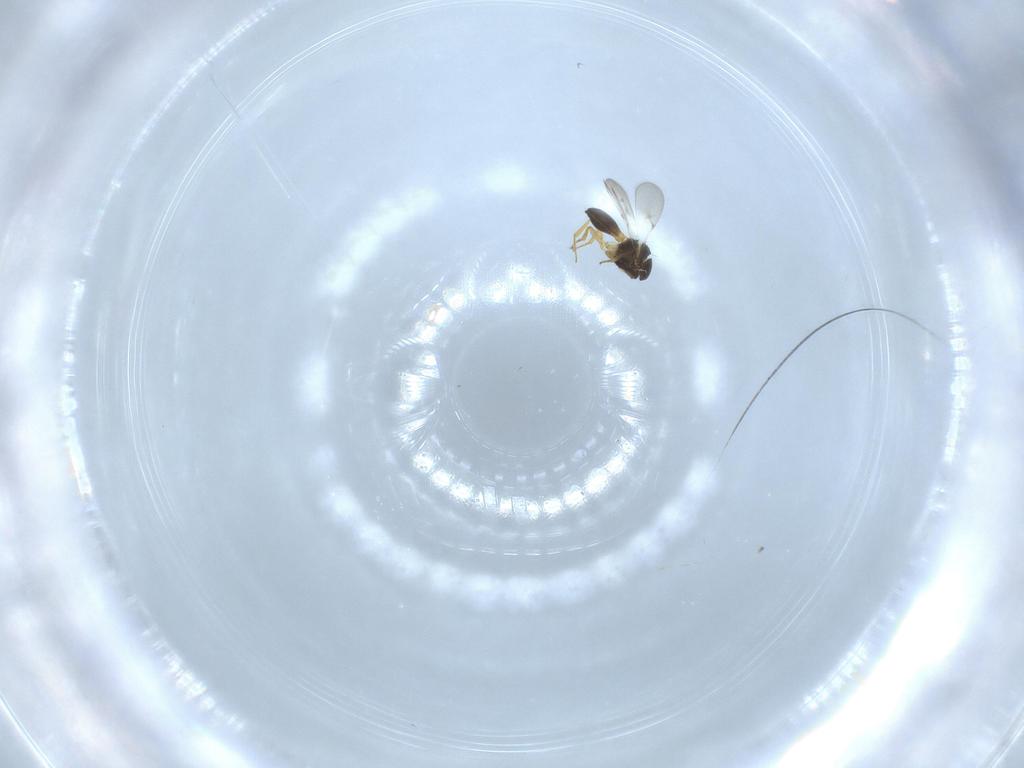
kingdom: Animalia
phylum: Arthropoda
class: Insecta
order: Hymenoptera
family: Scelionidae
